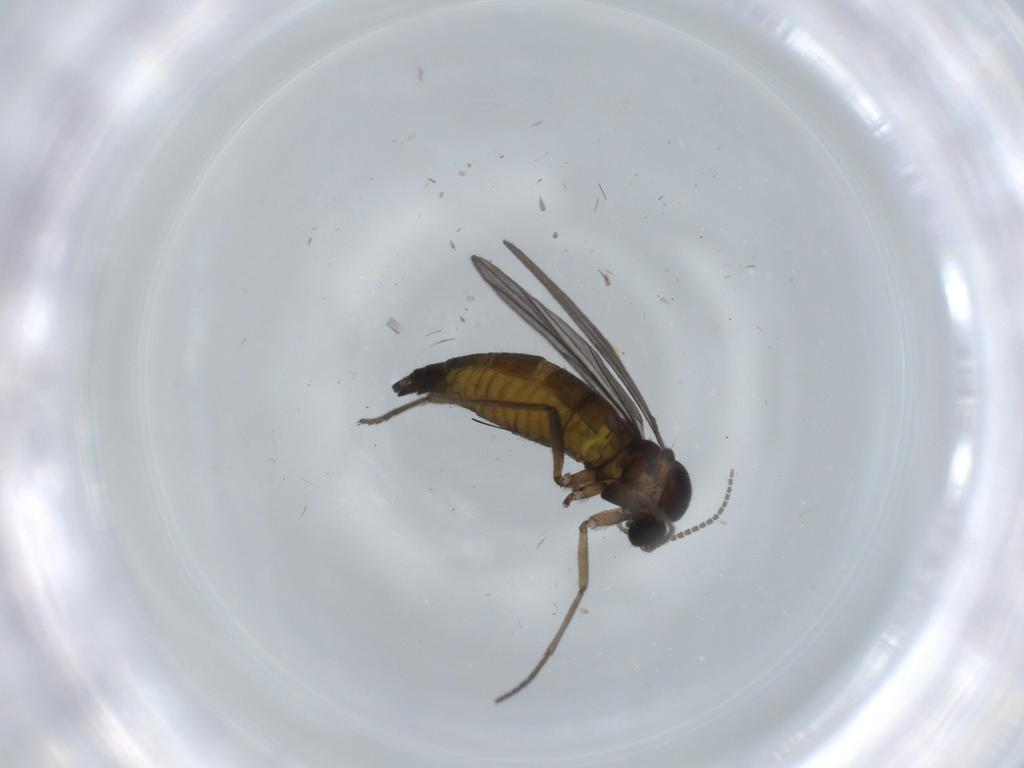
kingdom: Animalia
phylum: Arthropoda
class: Insecta
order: Diptera
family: Sciaridae
